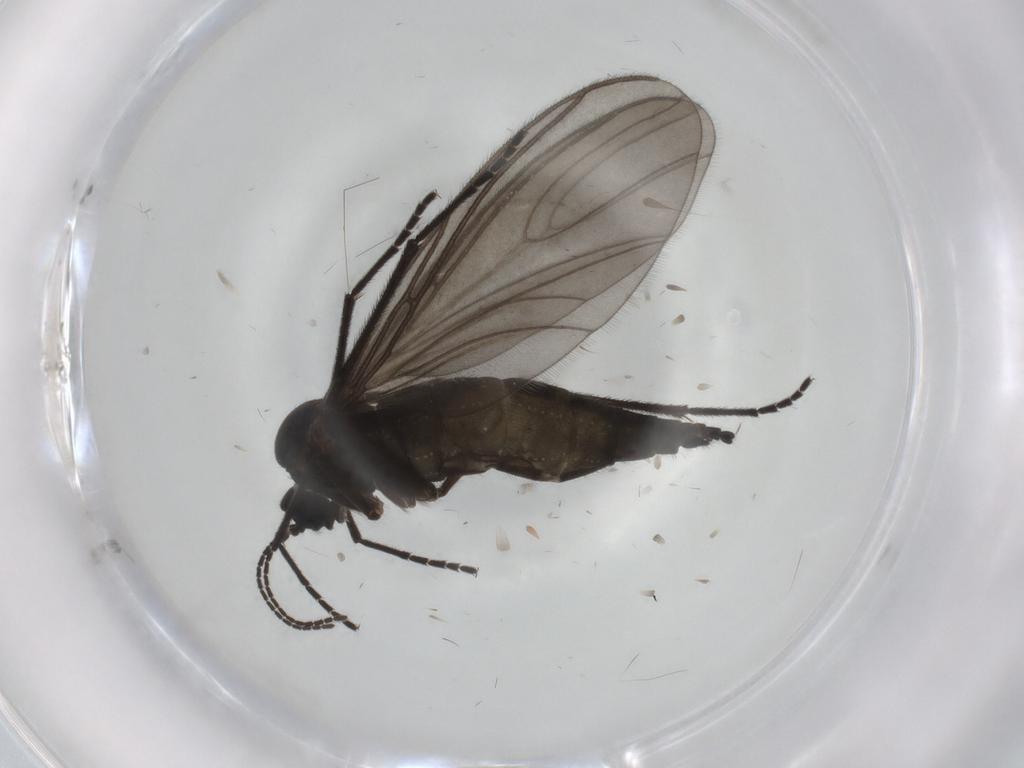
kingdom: Animalia
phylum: Arthropoda
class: Insecta
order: Diptera
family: Sciaridae
